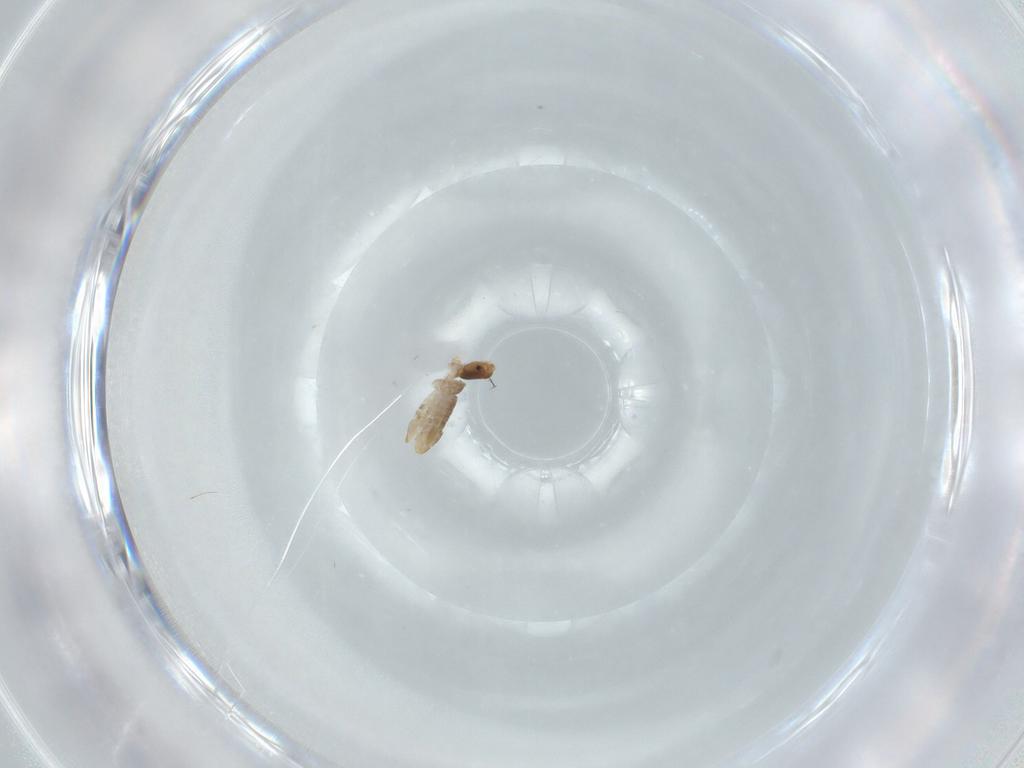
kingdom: Animalia
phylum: Arthropoda
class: Insecta
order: Psocodea
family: Liposcelididae
